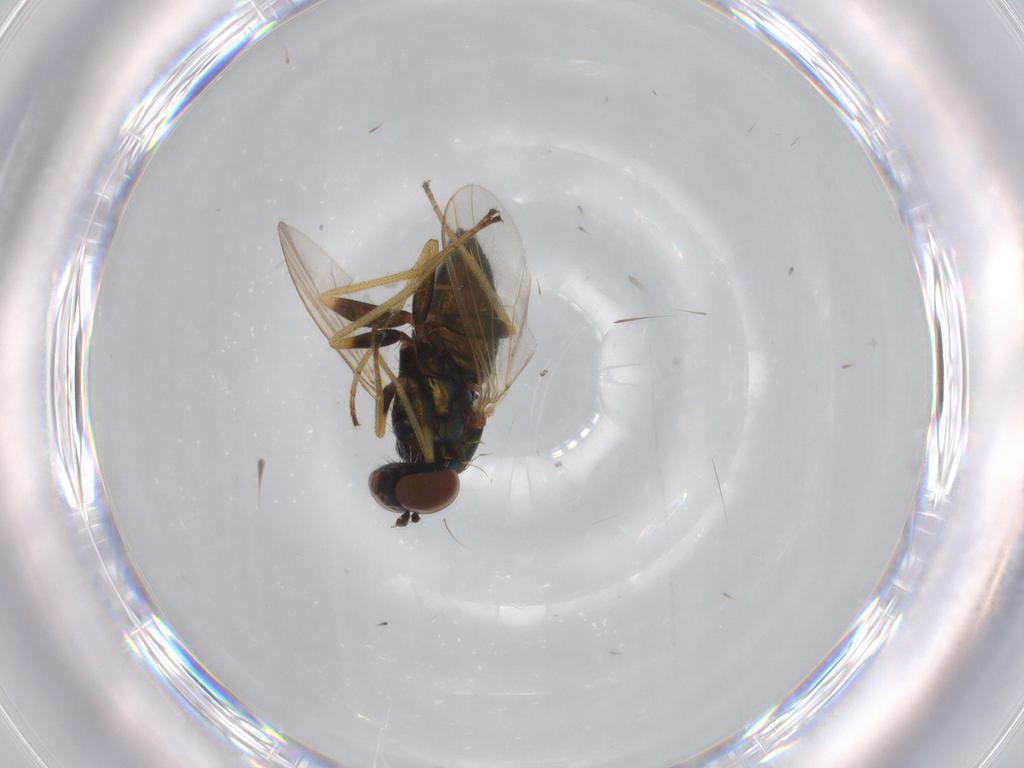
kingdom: Animalia
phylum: Arthropoda
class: Insecta
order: Diptera
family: Dolichopodidae
